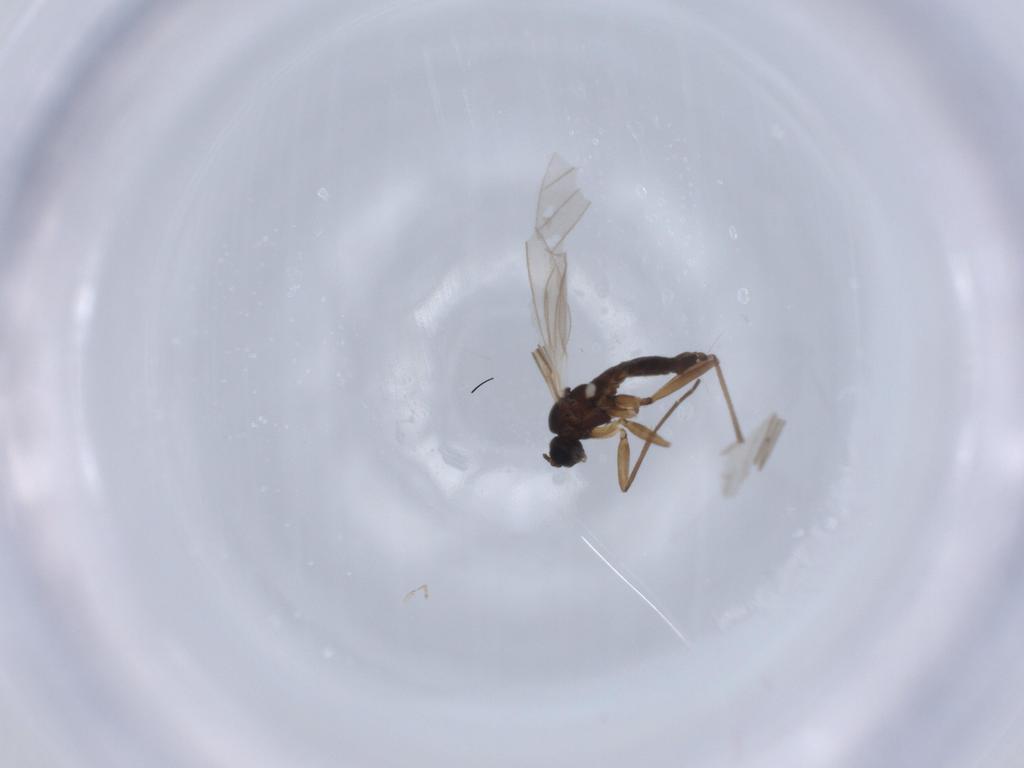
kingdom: Animalia
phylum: Arthropoda
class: Insecta
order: Diptera
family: Sciaridae
